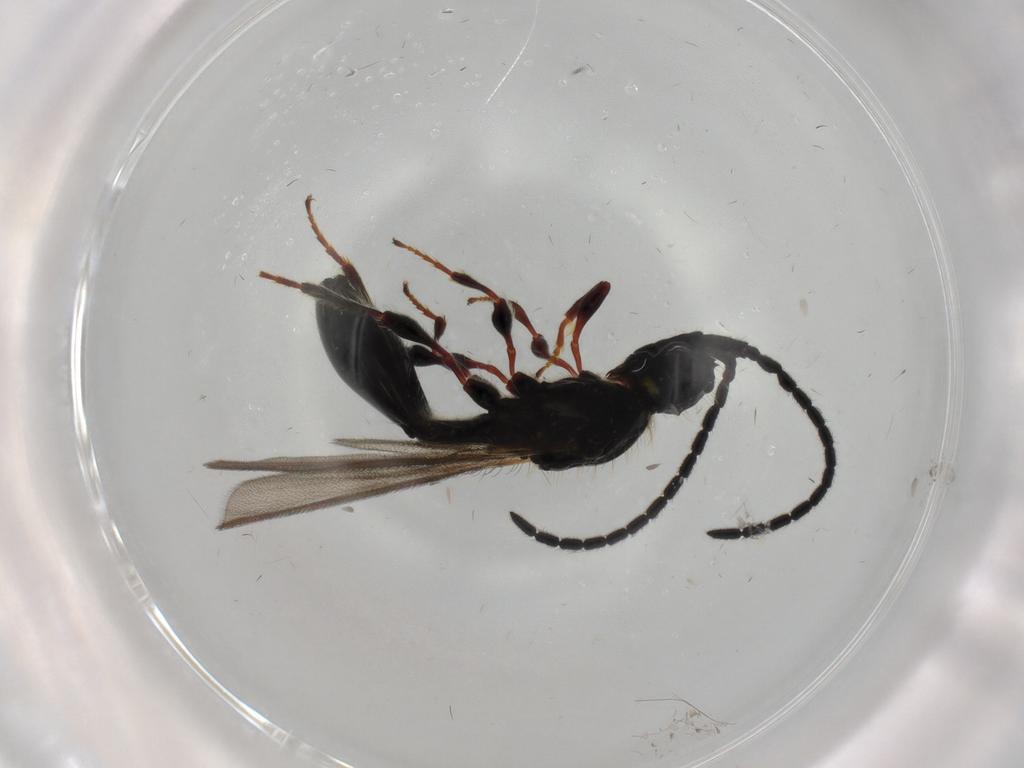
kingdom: Animalia
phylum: Arthropoda
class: Insecta
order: Hymenoptera
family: Diapriidae
